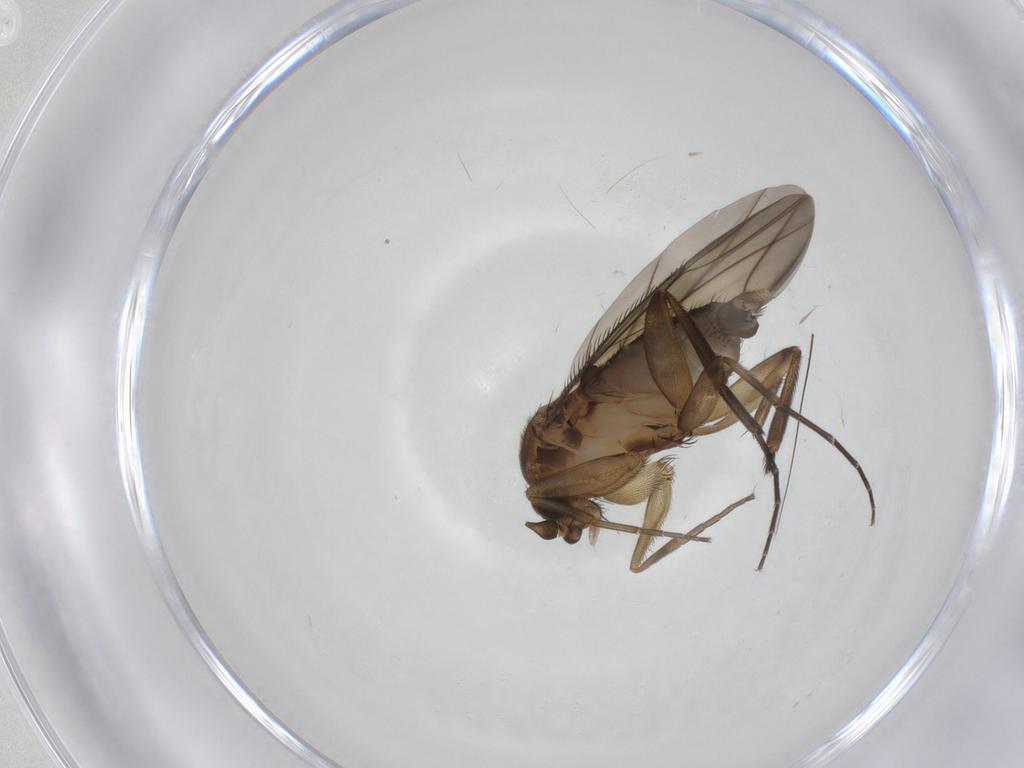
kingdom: Animalia
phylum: Arthropoda
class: Insecta
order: Diptera
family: Phoridae
